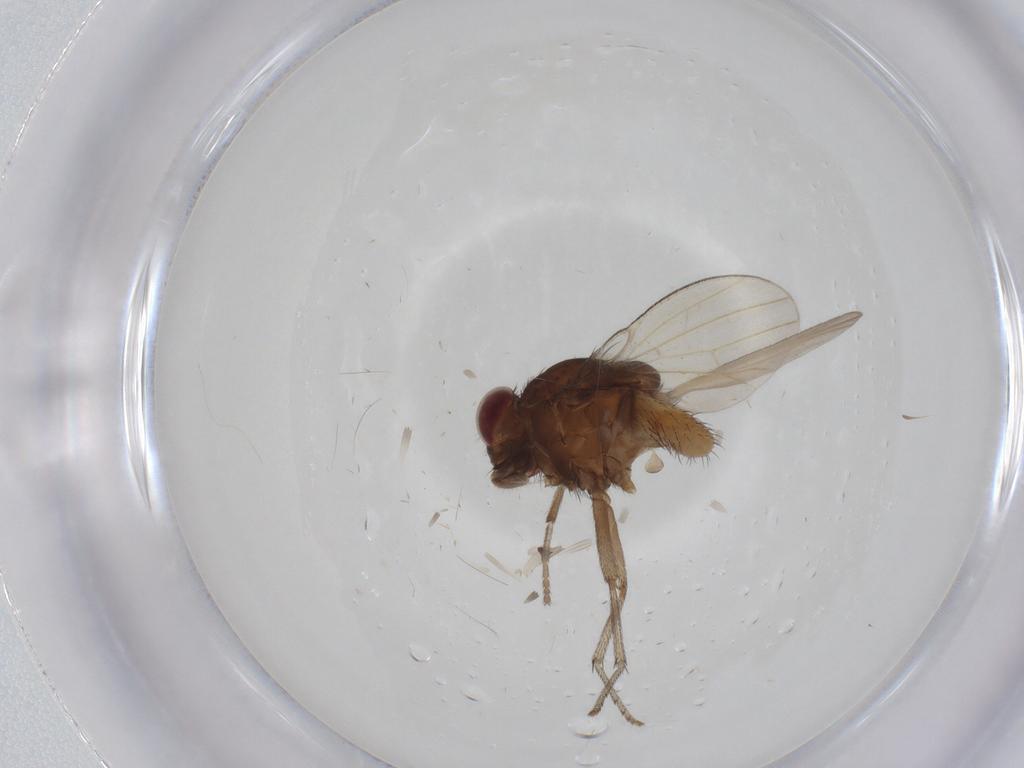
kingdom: Animalia
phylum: Arthropoda
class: Insecta
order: Diptera
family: Dolichopodidae
